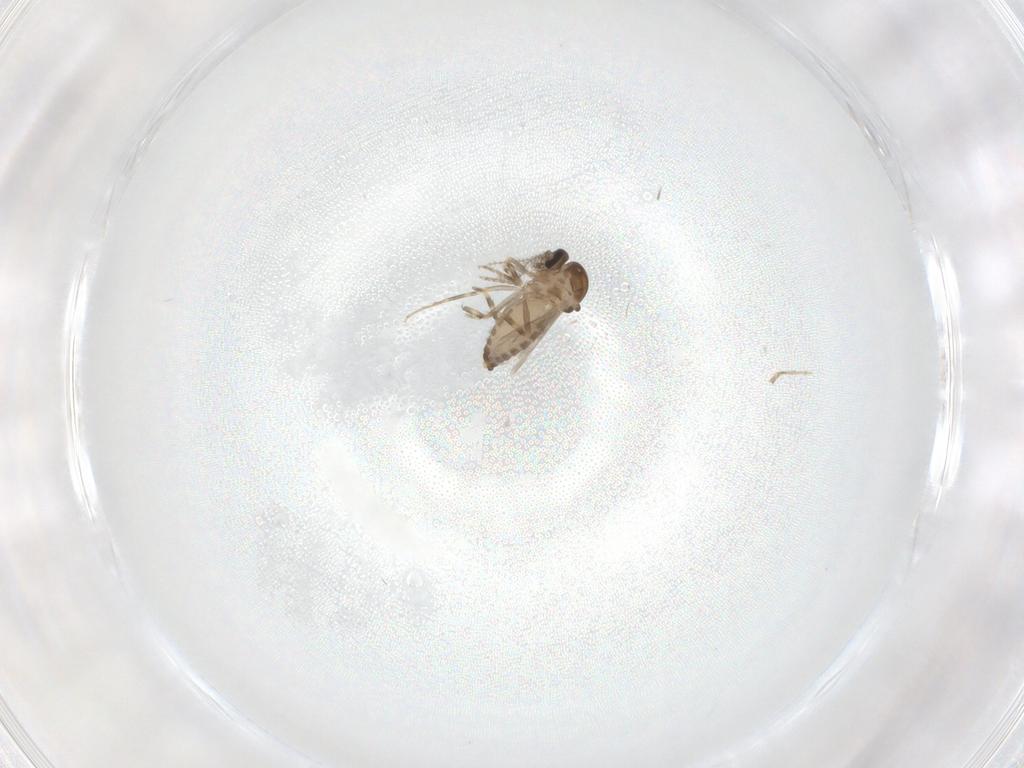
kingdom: Animalia
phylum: Arthropoda
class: Insecta
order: Diptera
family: Ceratopogonidae
